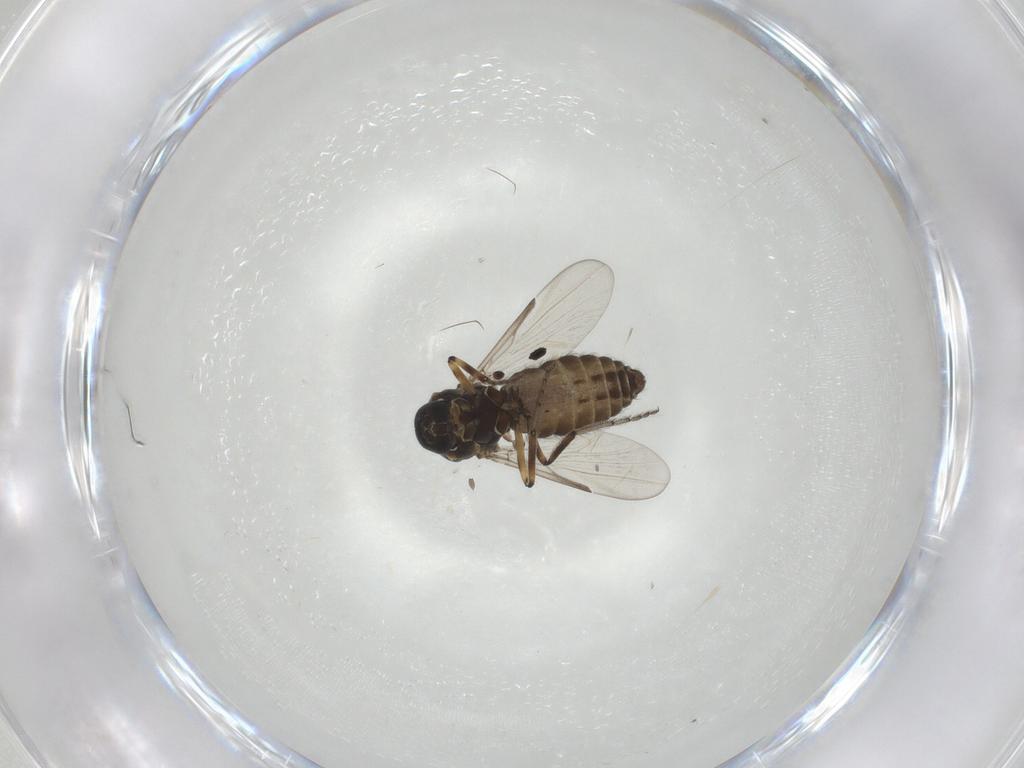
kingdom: Animalia
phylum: Arthropoda
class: Insecta
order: Diptera
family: Ceratopogonidae
